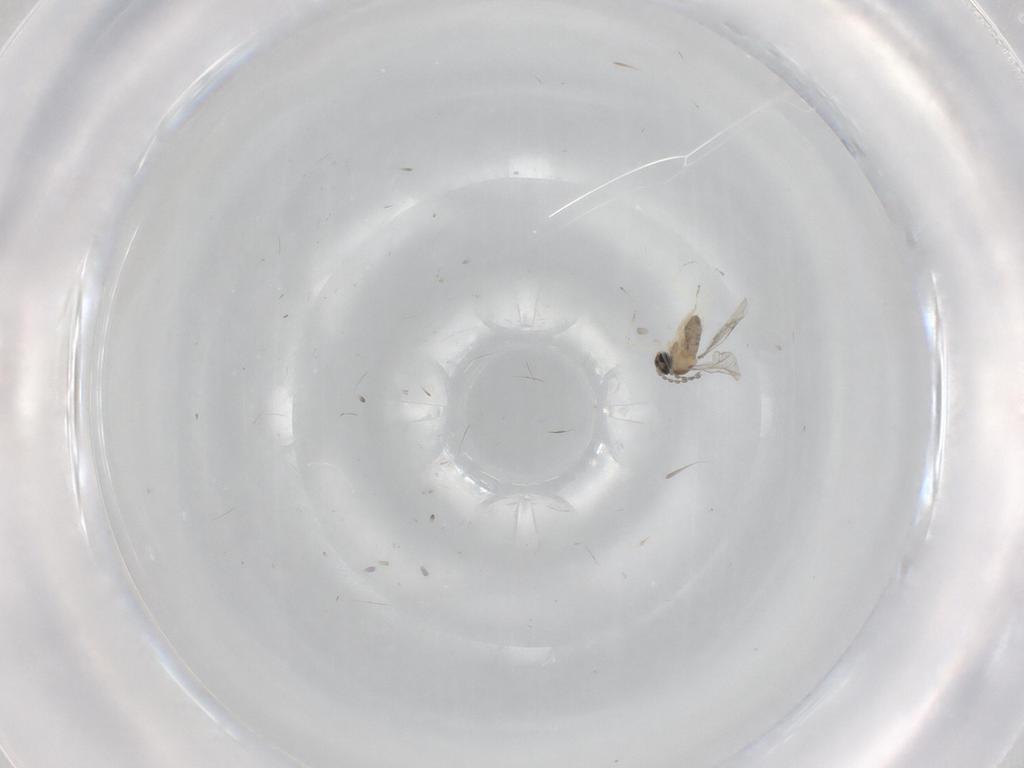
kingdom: Animalia
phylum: Arthropoda
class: Insecta
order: Diptera
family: Cecidomyiidae
